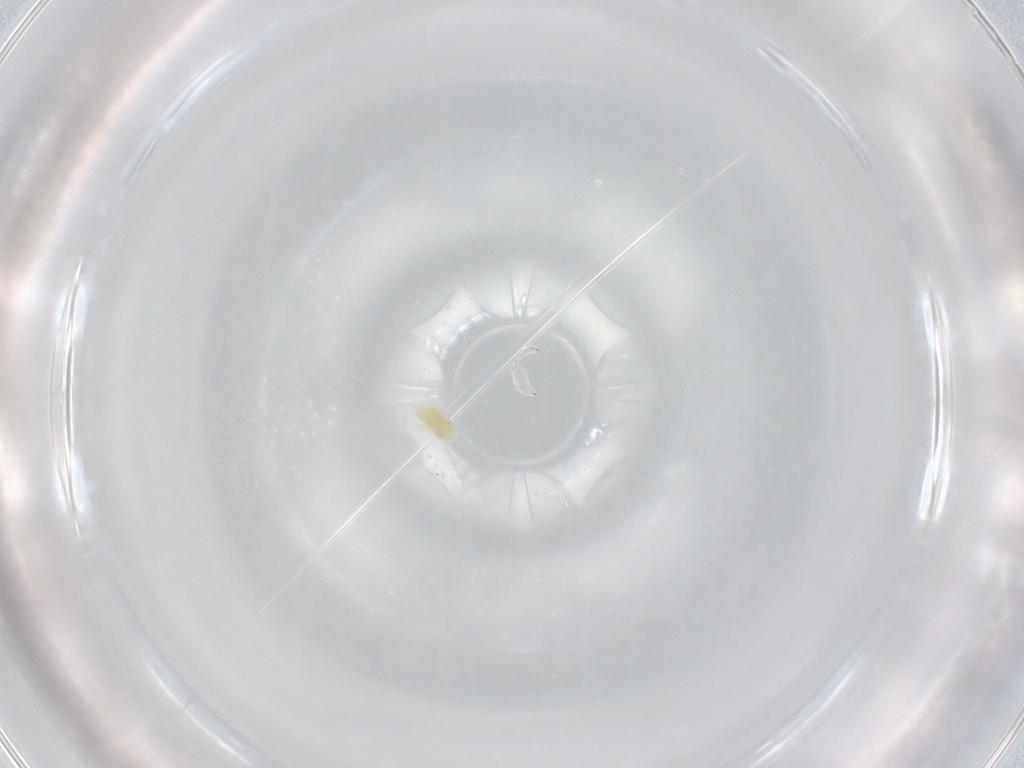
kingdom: Animalia
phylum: Arthropoda
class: Arachnida
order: Trombidiformes
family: Eupodidae
